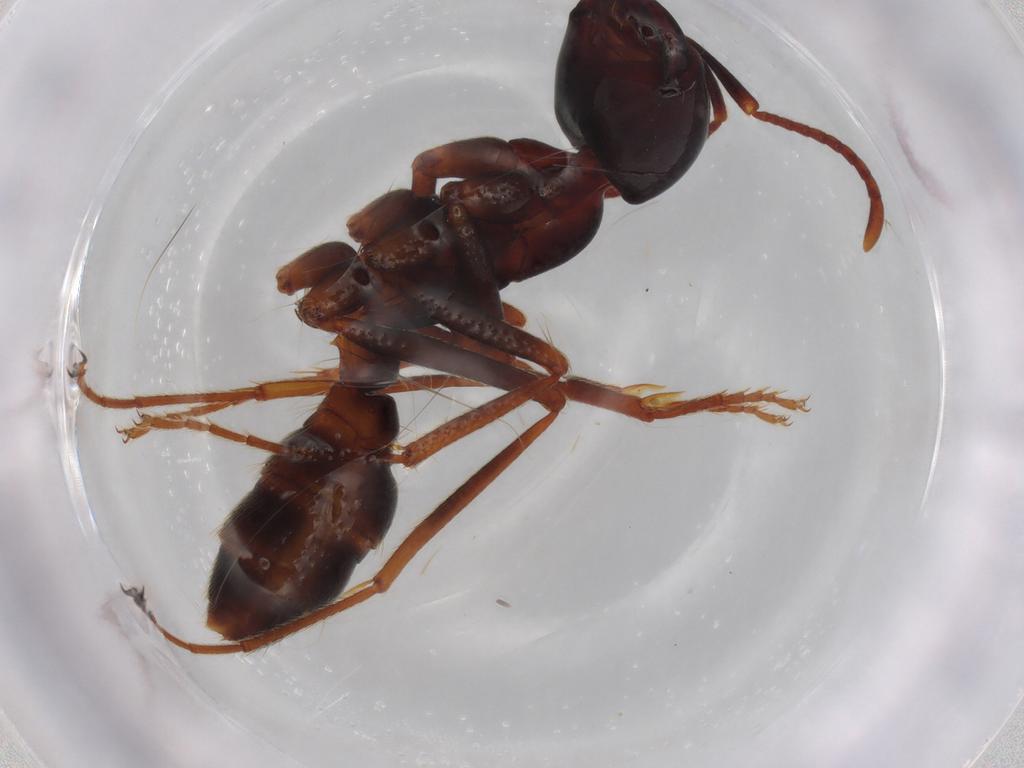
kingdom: Animalia
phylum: Arthropoda
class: Insecta
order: Hymenoptera
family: Formicidae
